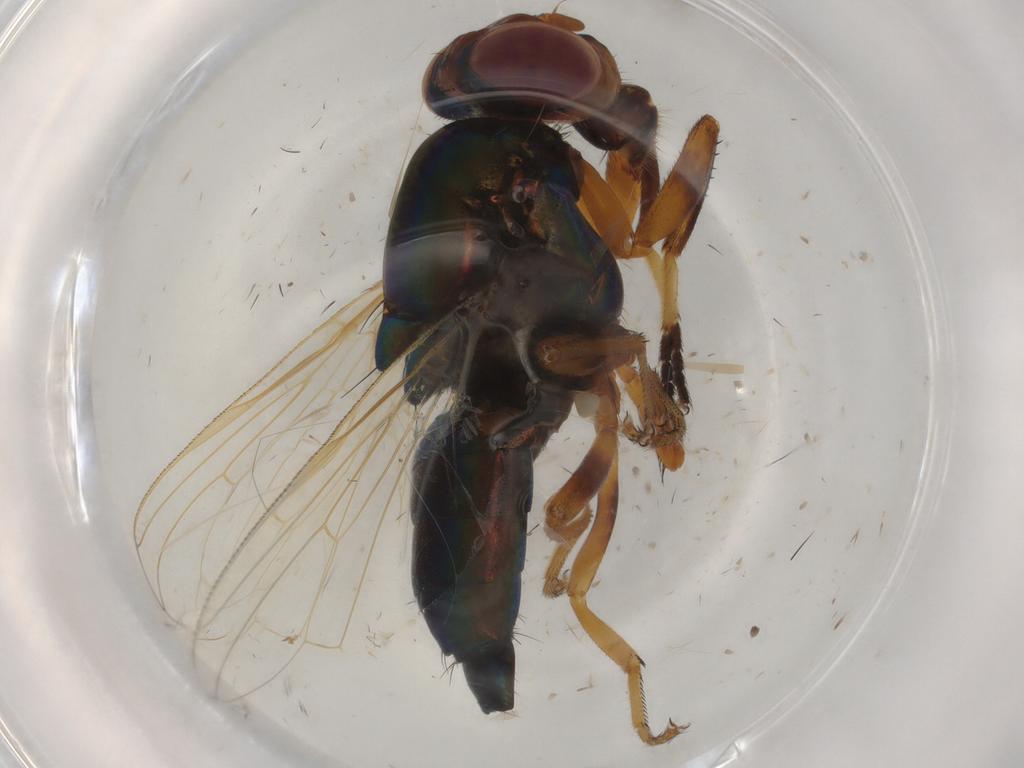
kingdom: Animalia
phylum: Arthropoda
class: Insecta
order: Diptera
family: Ulidiidae
